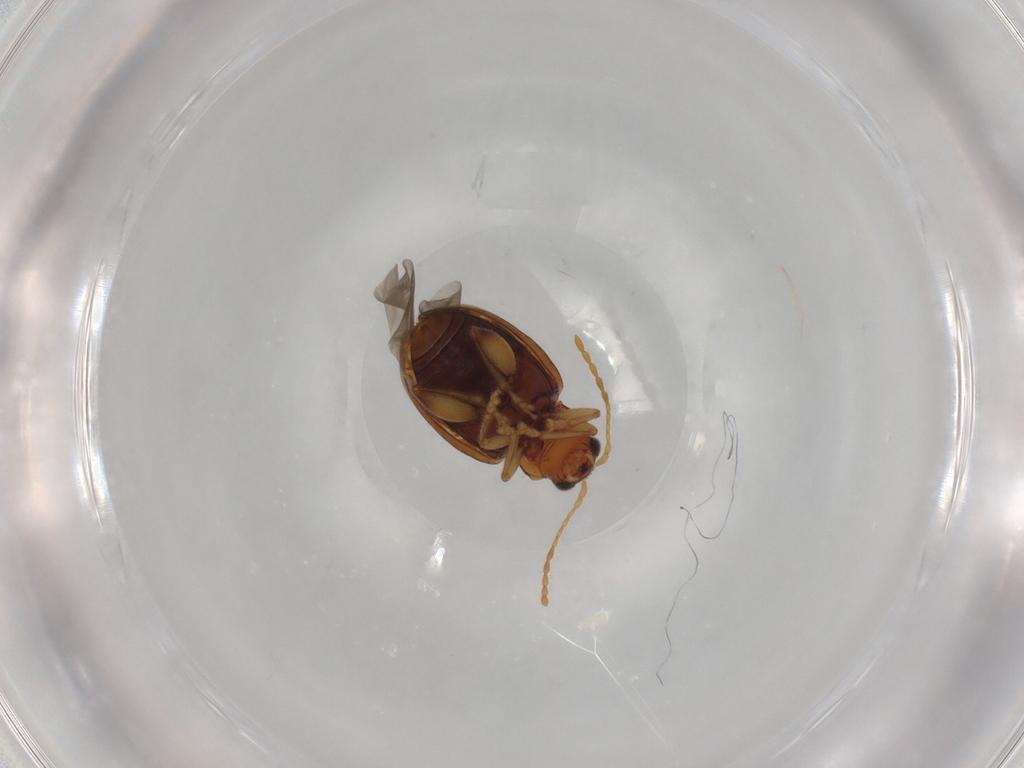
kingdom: Animalia
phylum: Arthropoda
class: Insecta
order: Coleoptera
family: Chrysomelidae
